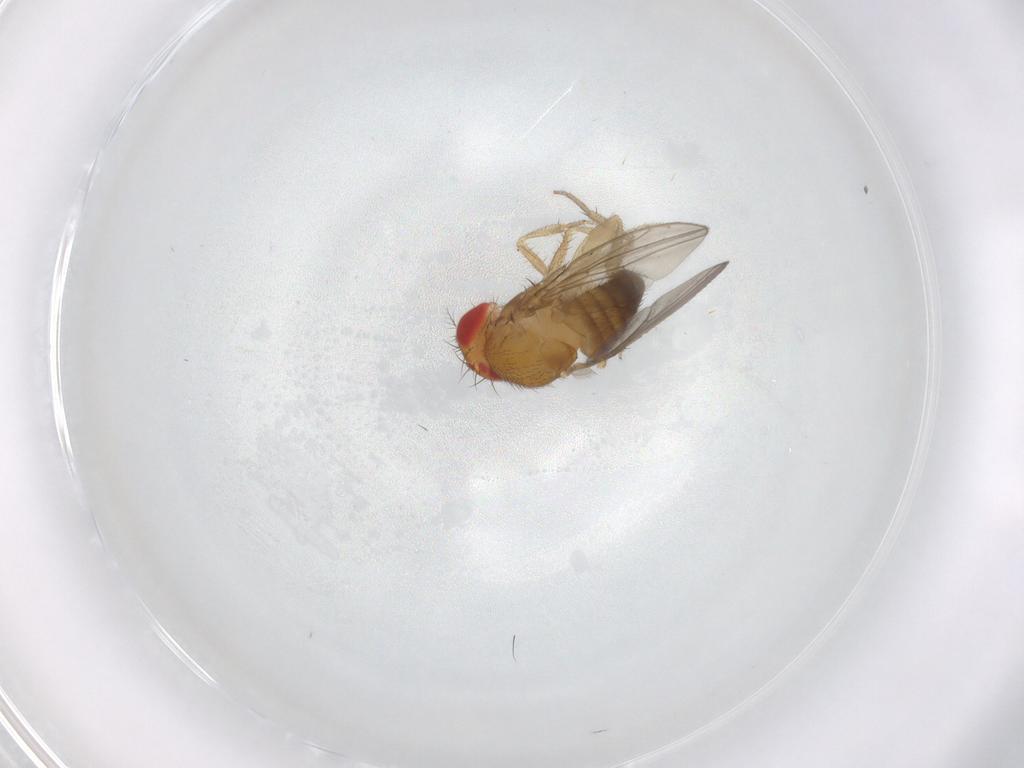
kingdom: Animalia
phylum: Arthropoda
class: Insecta
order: Diptera
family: Drosophilidae
